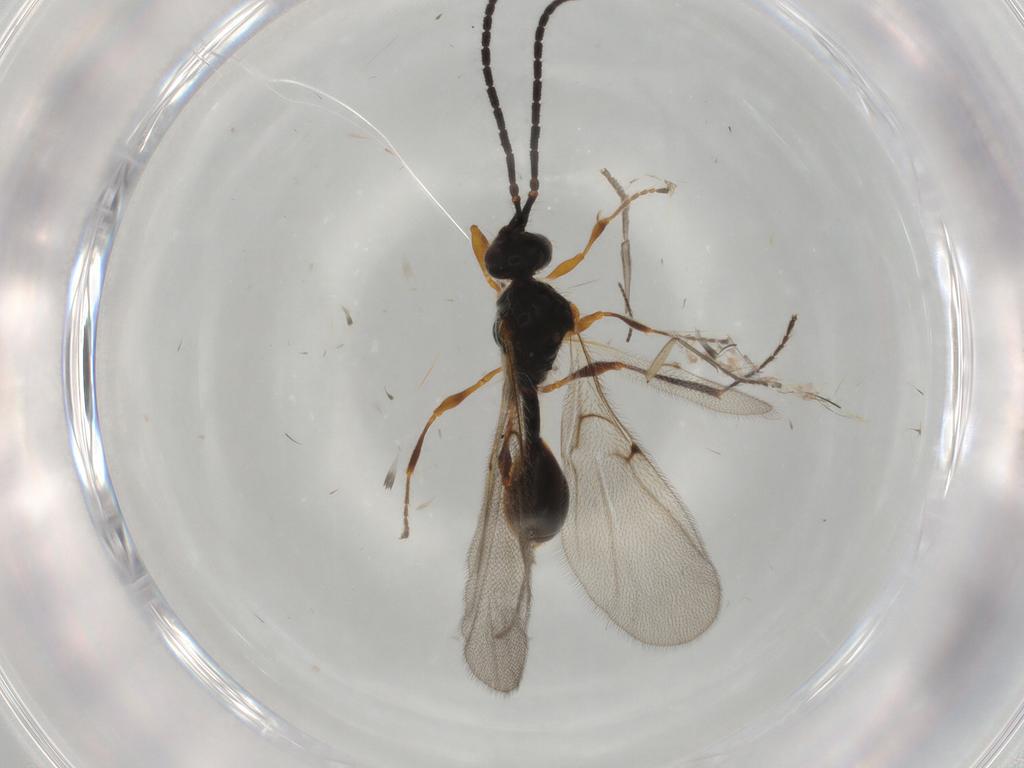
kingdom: Animalia
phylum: Arthropoda
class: Insecta
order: Hymenoptera
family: Diapriidae
